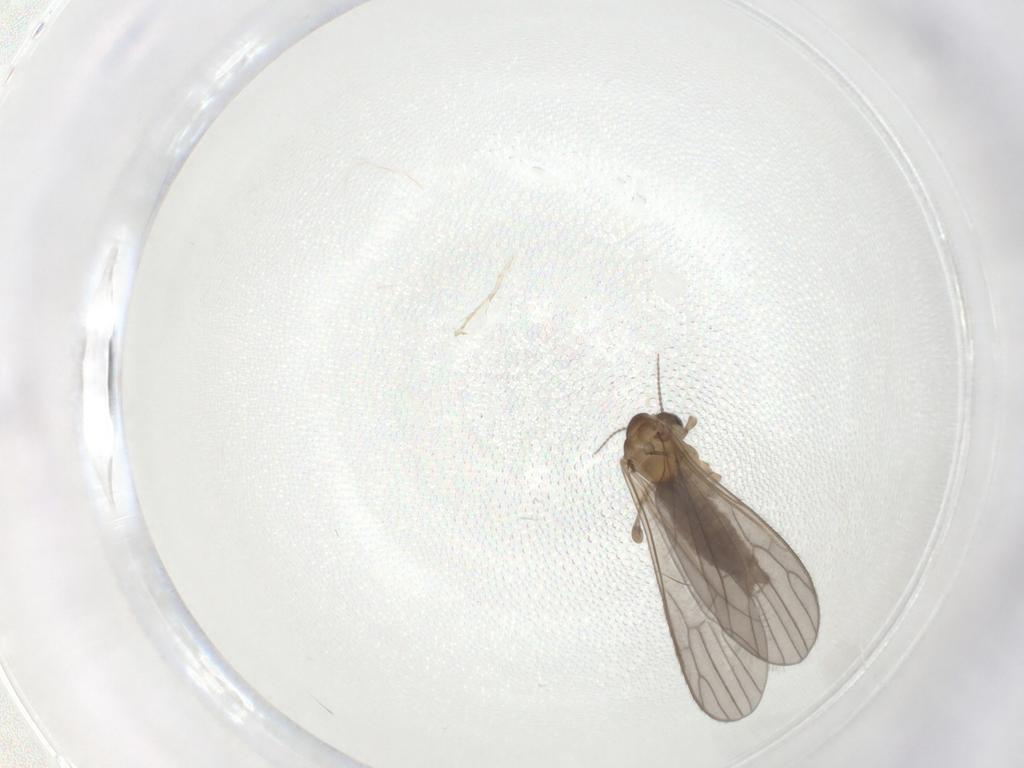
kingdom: Animalia
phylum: Arthropoda
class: Insecta
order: Diptera
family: Limoniidae
